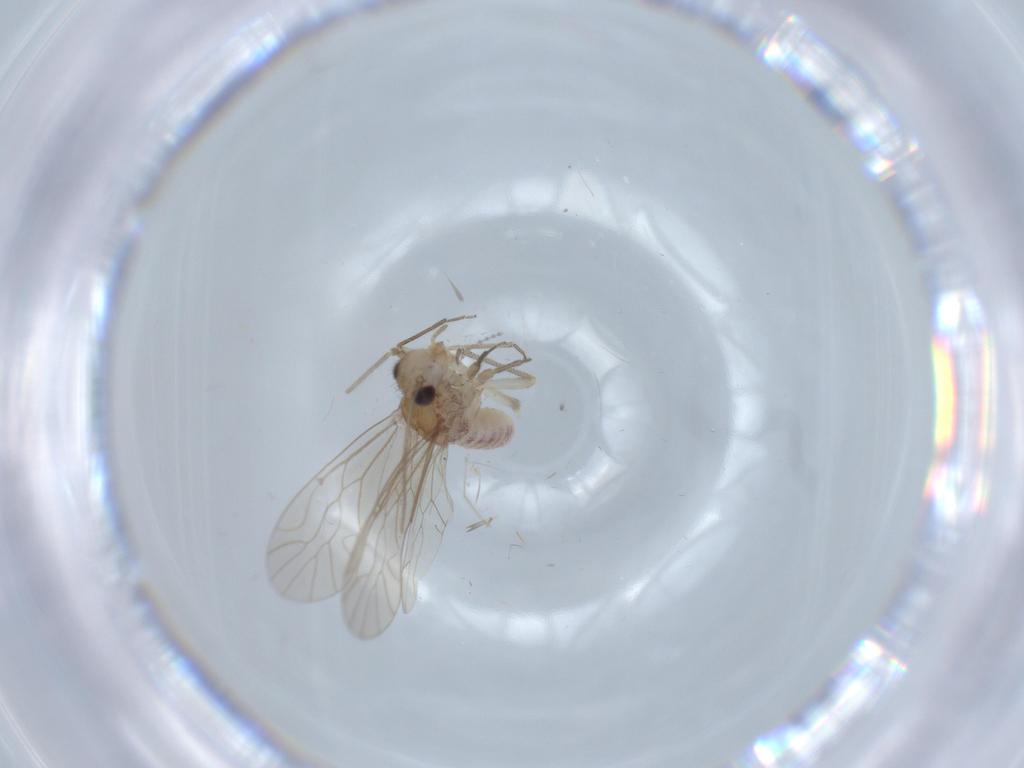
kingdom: Animalia
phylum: Arthropoda
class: Insecta
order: Psocodea
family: Caeciliusidae
